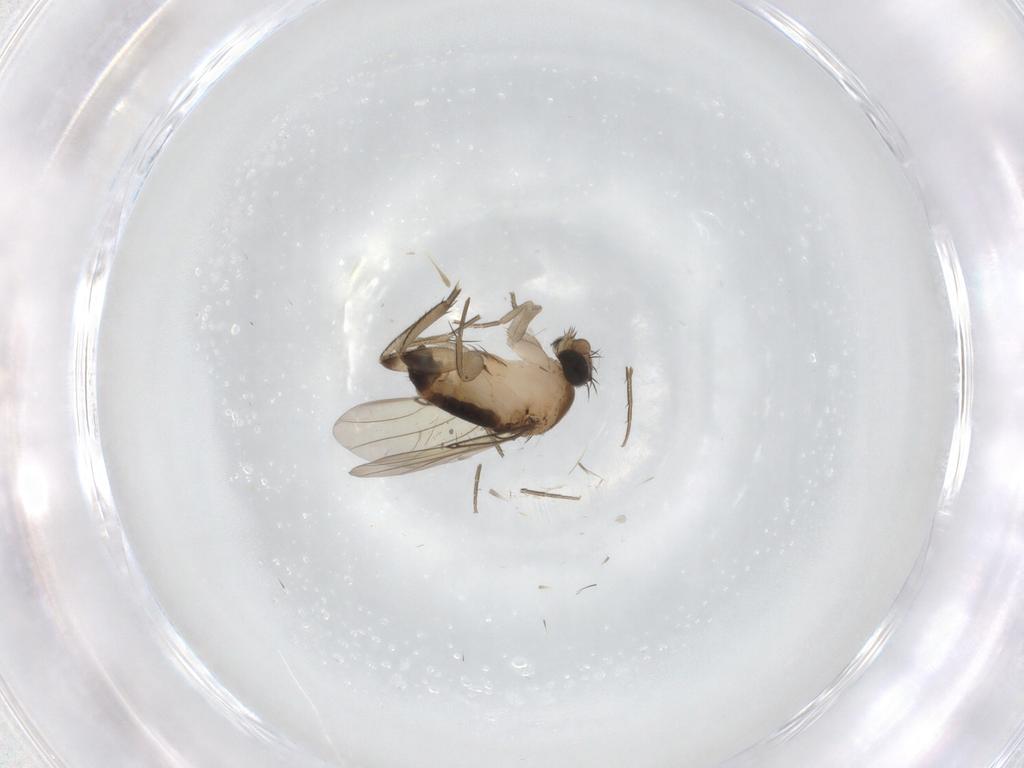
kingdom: Animalia
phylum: Arthropoda
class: Insecta
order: Diptera
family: Phoridae
